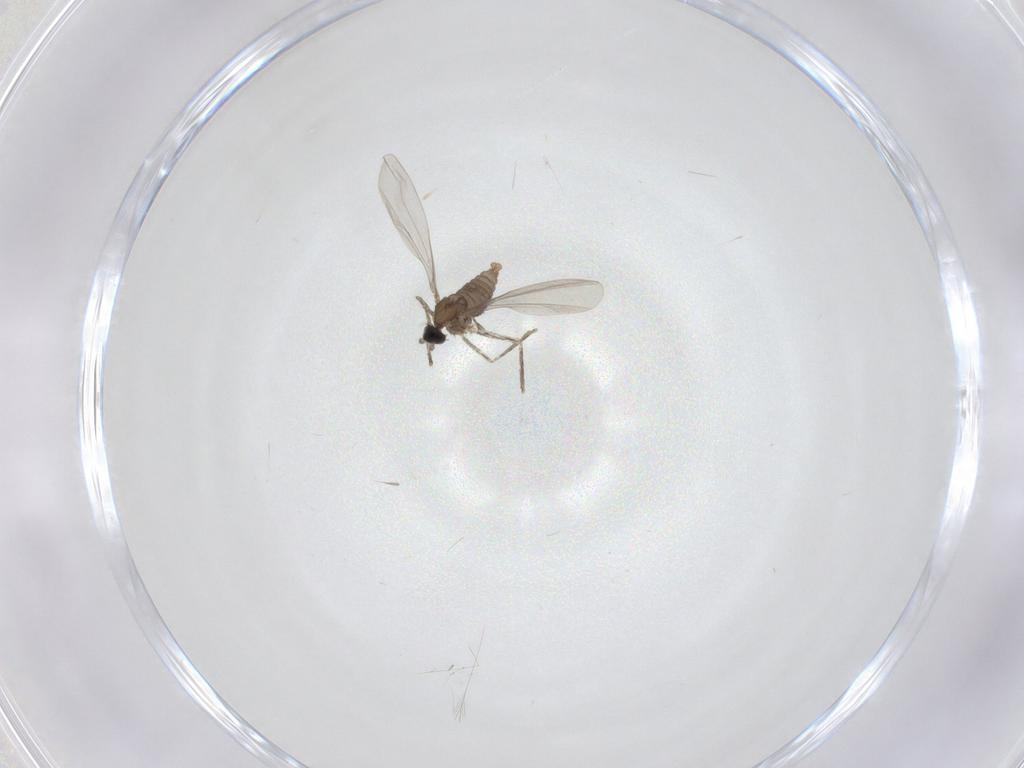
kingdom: Animalia
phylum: Arthropoda
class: Insecta
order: Diptera
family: Cecidomyiidae
